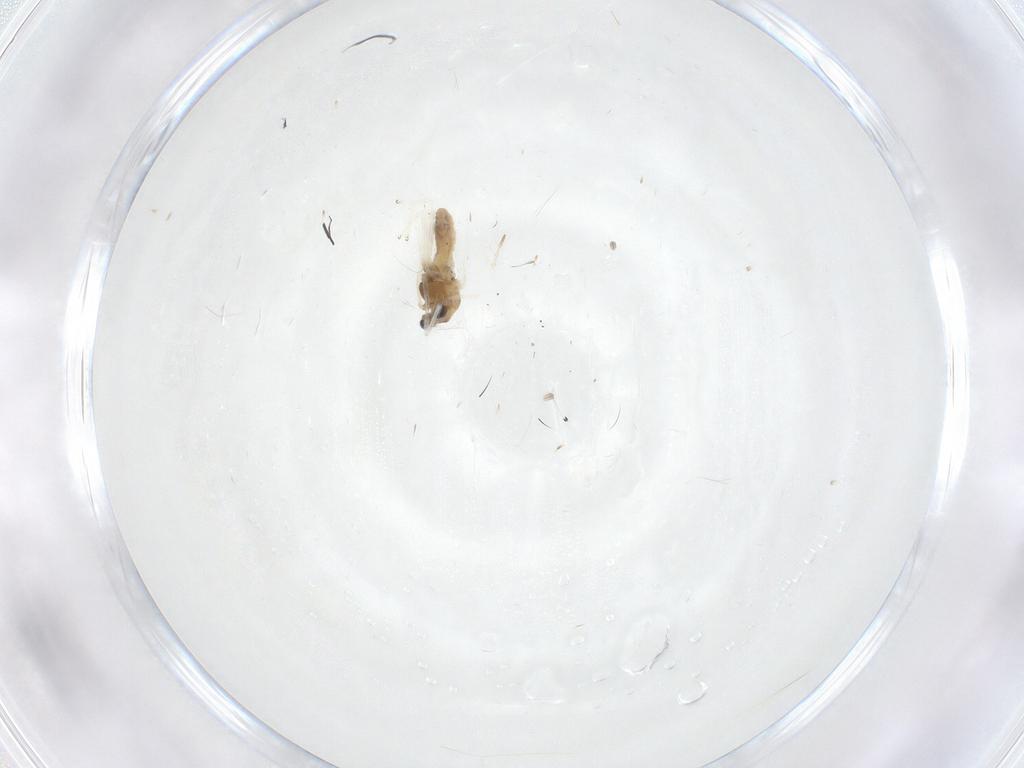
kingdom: Animalia
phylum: Arthropoda
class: Insecta
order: Diptera
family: Chironomidae
